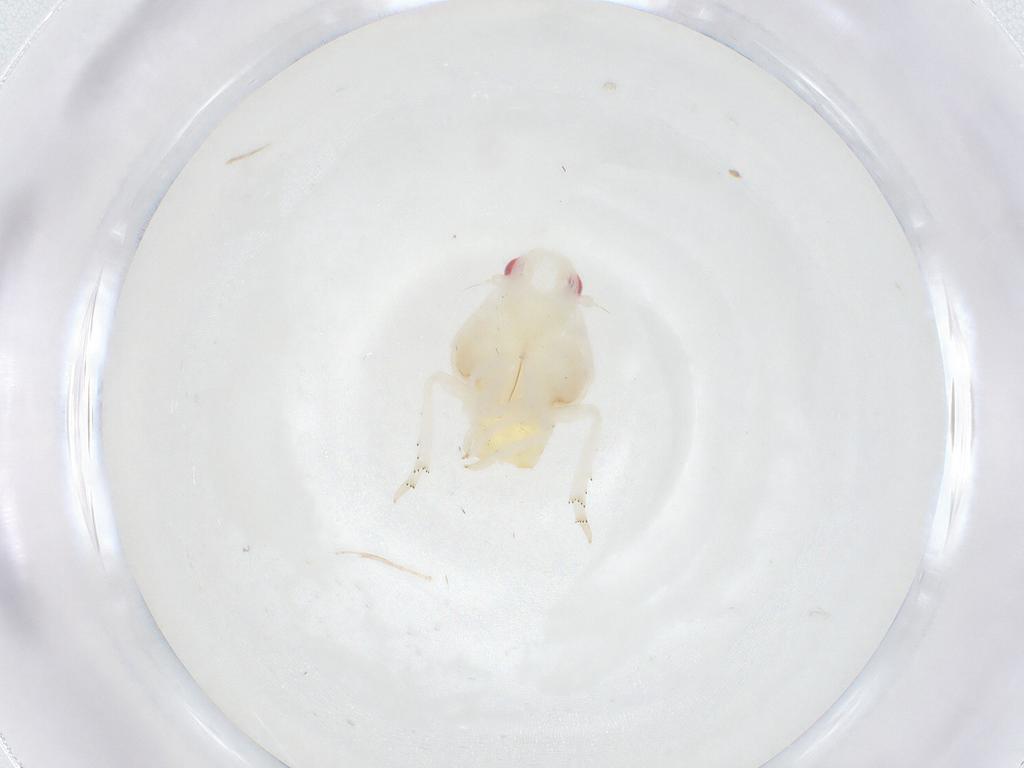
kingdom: Animalia
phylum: Arthropoda
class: Insecta
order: Hemiptera
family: Flatidae
